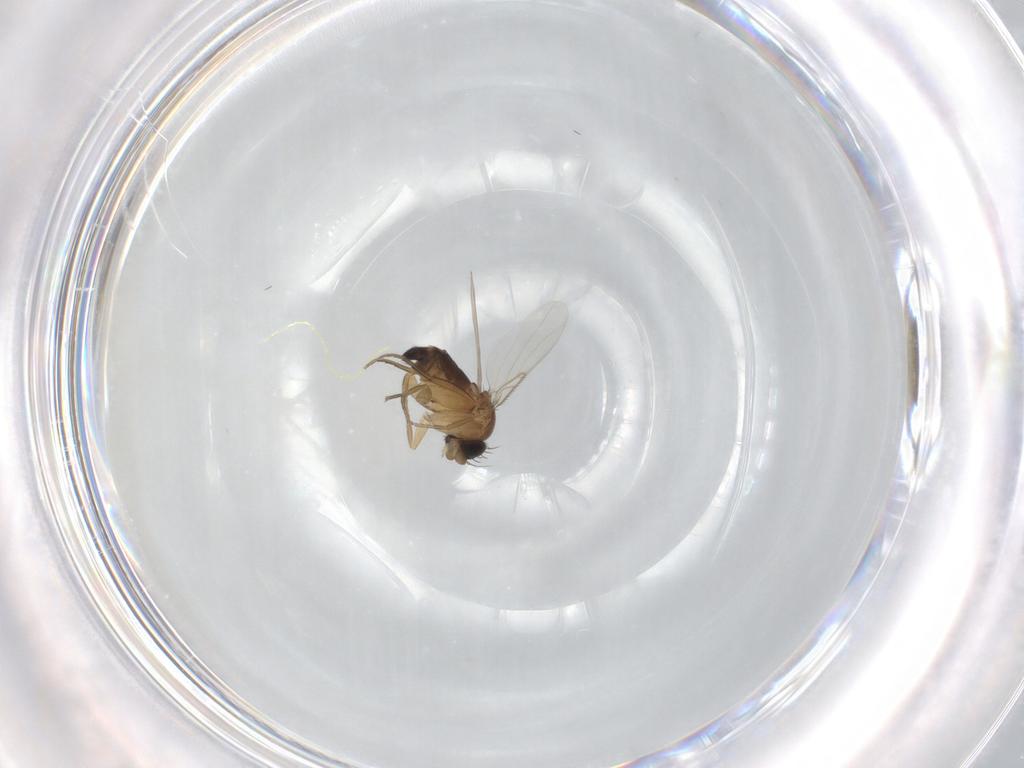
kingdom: Animalia
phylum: Arthropoda
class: Insecta
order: Diptera
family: Phoridae
